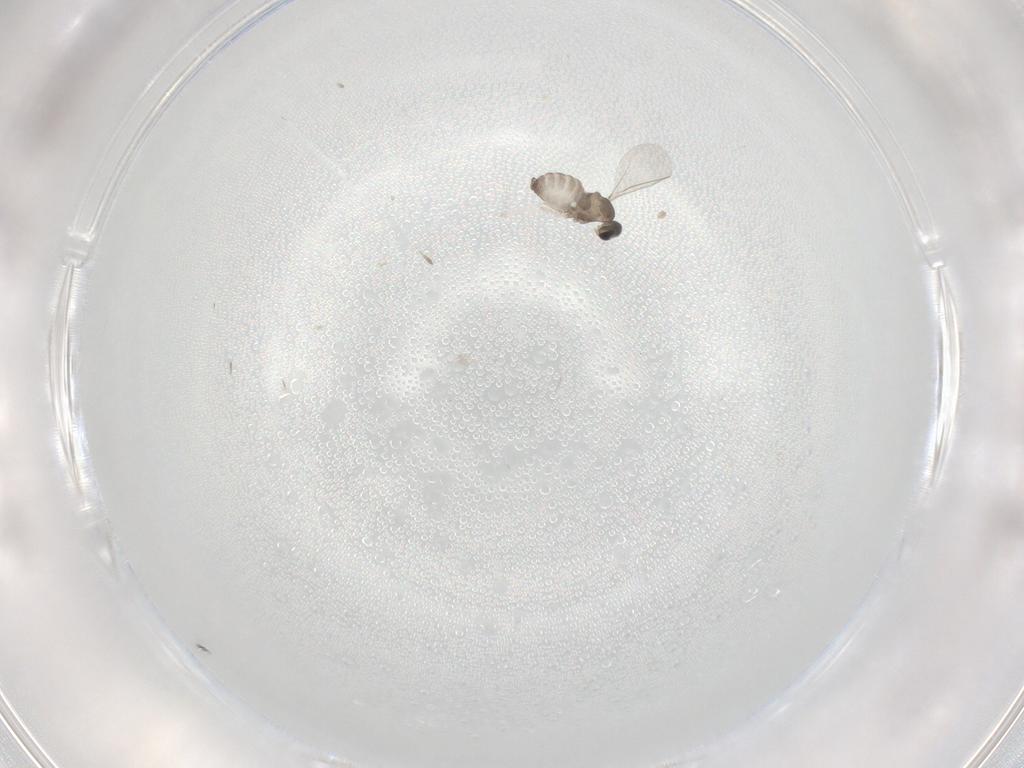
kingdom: Animalia
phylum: Arthropoda
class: Insecta
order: Diptera
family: Cecidomyiidae
